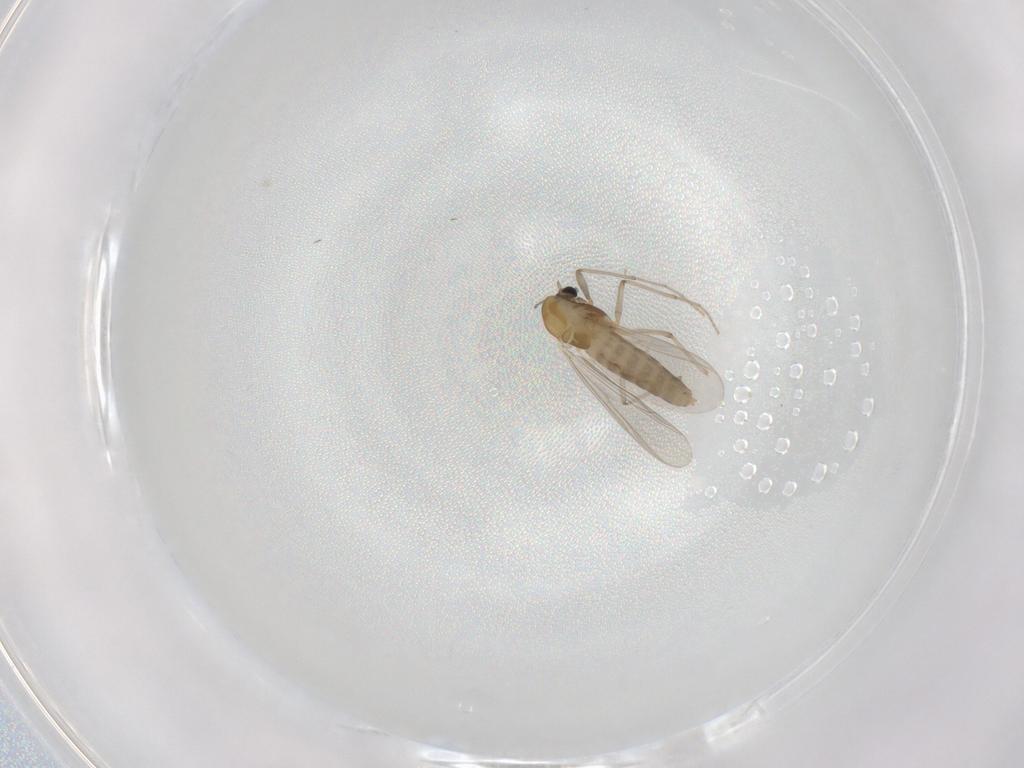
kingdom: Animalia
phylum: Arthropoda
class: Insecta
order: Diptera
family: Chironomidae
